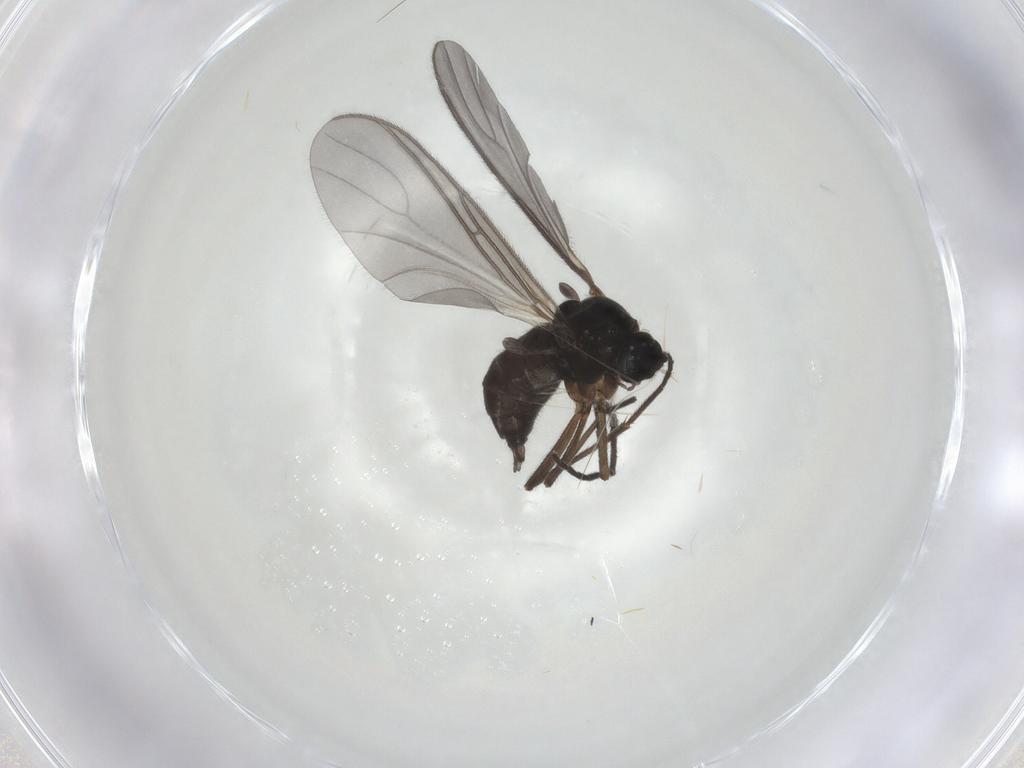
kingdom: Animalia
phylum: Arthropoda
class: Insecta
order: Diptera
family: Sciaridae
